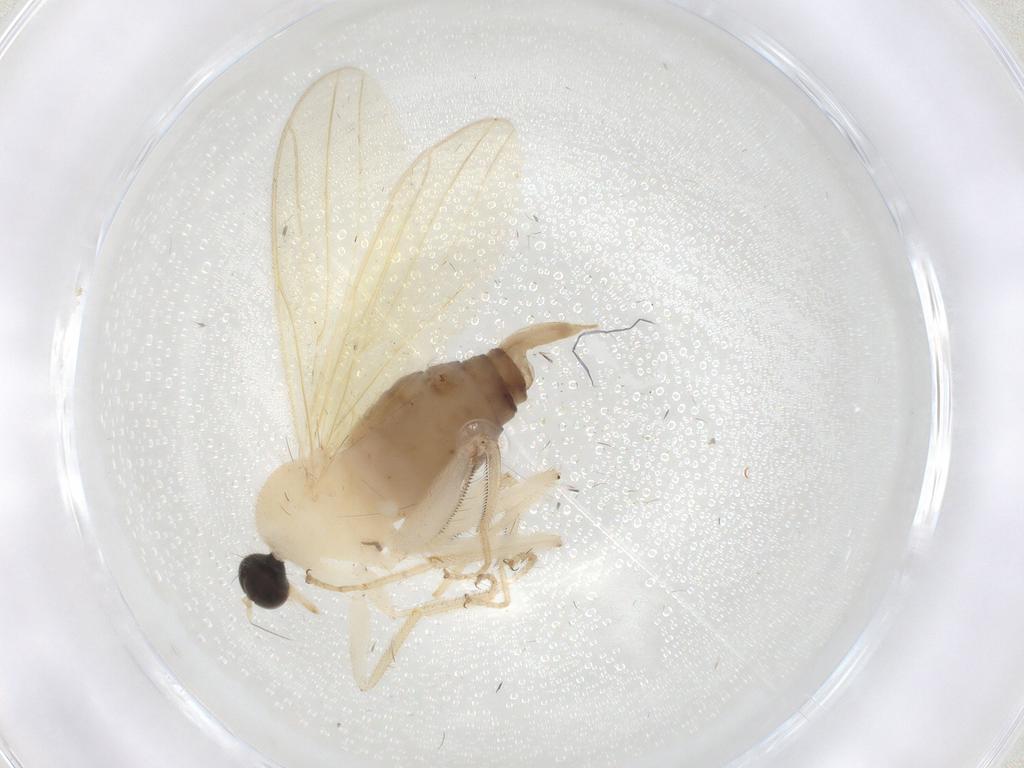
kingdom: Animalia
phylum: Arthropoda
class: Insecta
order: Diptera
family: Hybotidae
